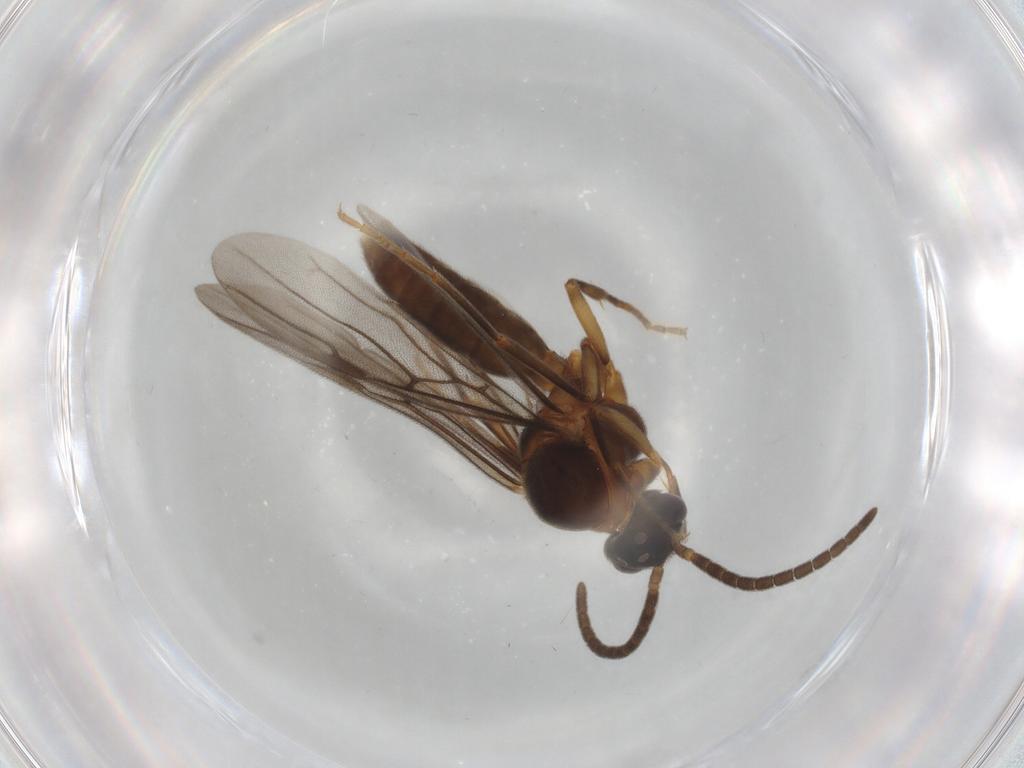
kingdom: Animalia
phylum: Arthropoda
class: Insecta
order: Hymenoptera
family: Formicidae
